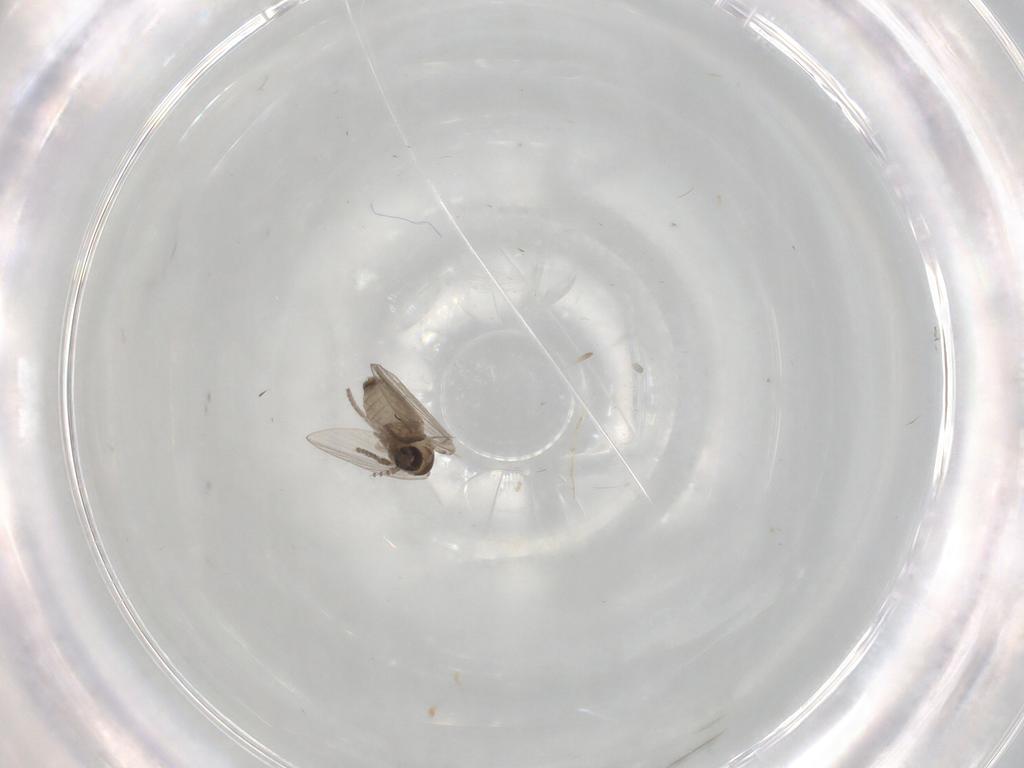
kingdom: Animalia
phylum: Arthropoda
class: Insecta
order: Diptera
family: Psychodidae
